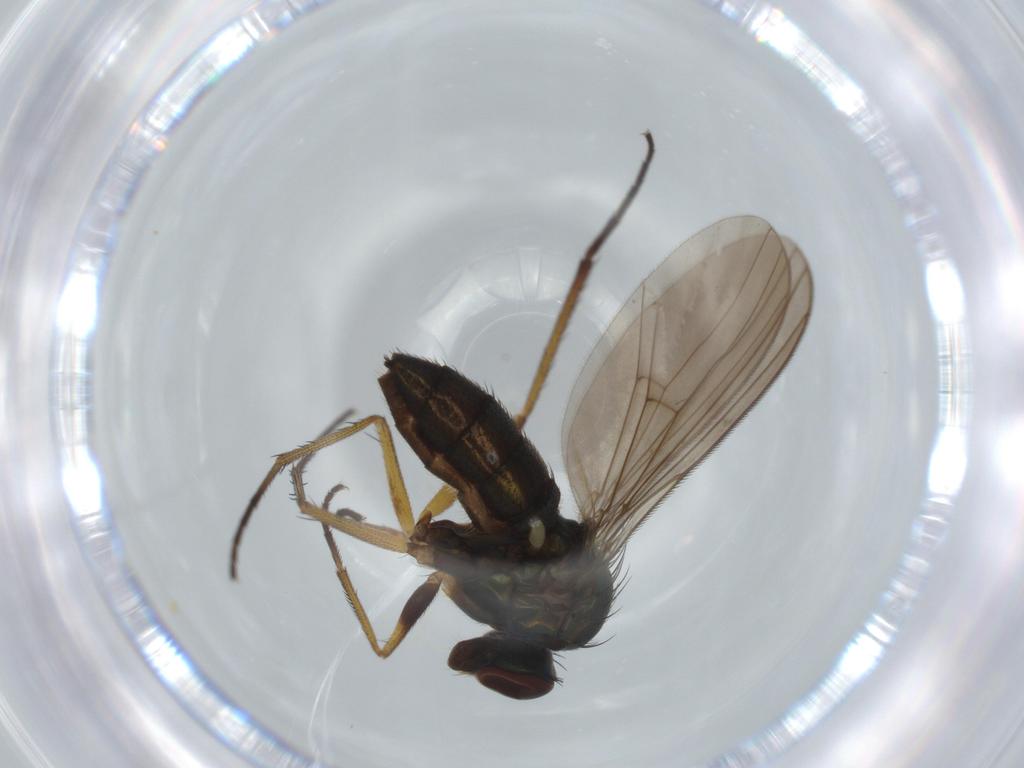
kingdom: Animalia
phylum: Arthropoda
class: Insecta
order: Diptera
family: Dolichopodidae
